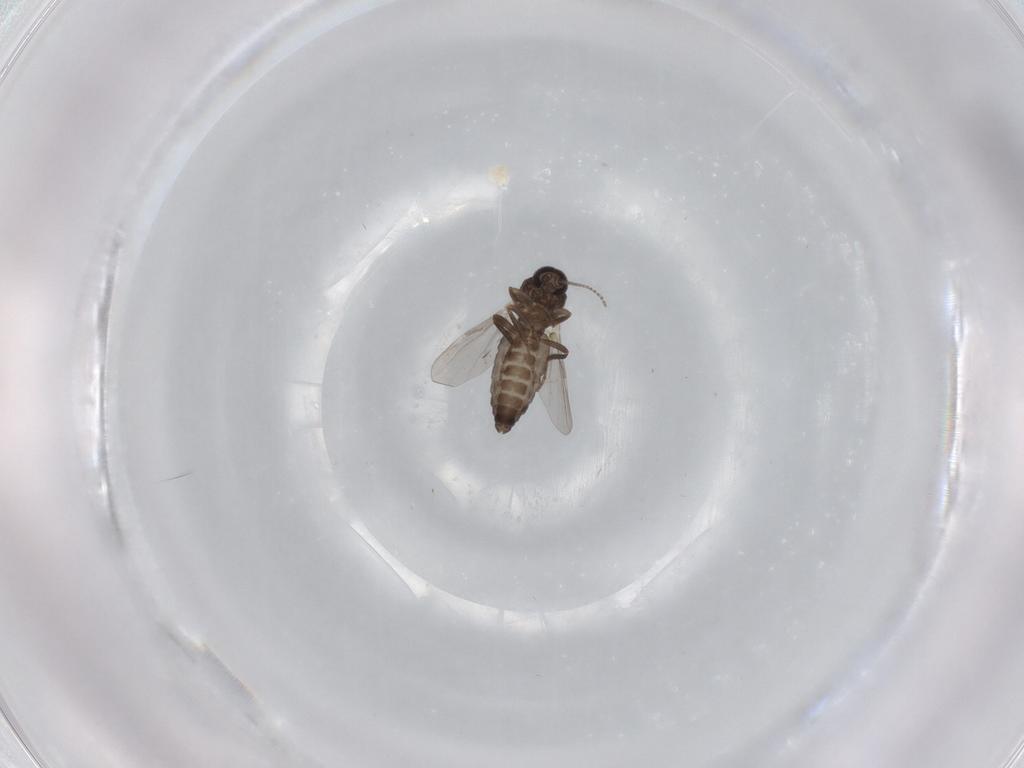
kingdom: Animalia
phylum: Arthropoda
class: Insecta
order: Diptera
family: Ceratopogonidae
